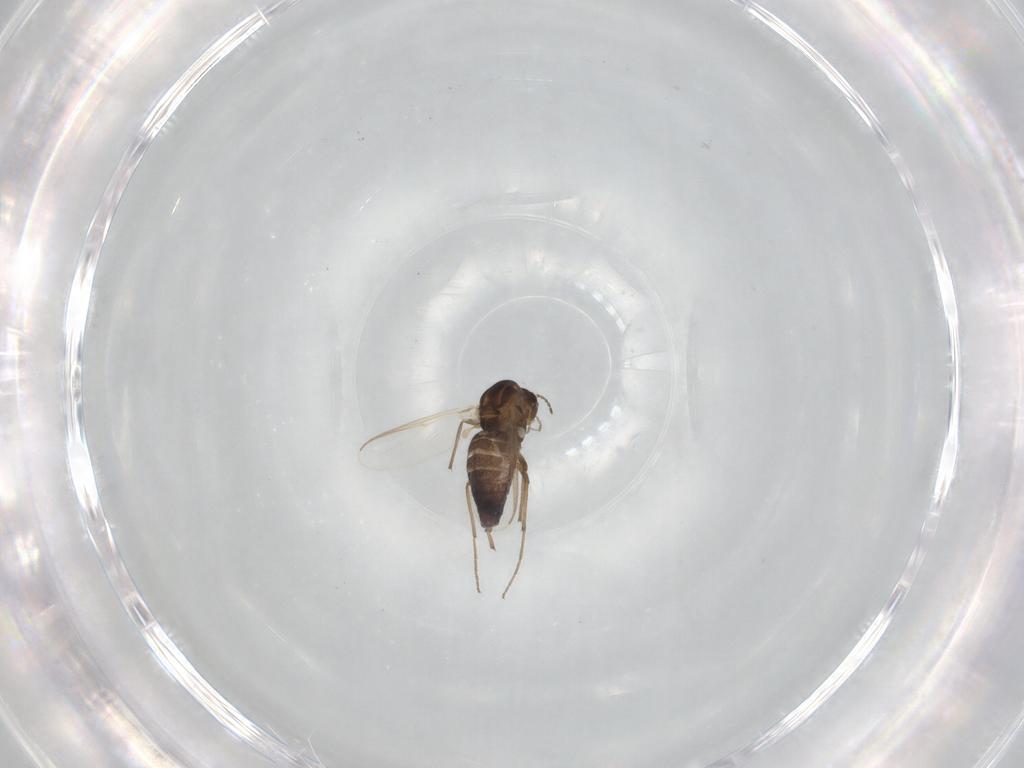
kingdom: Animalia
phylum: Arthropoda
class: Insecta
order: Diptera
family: Chironomidae
